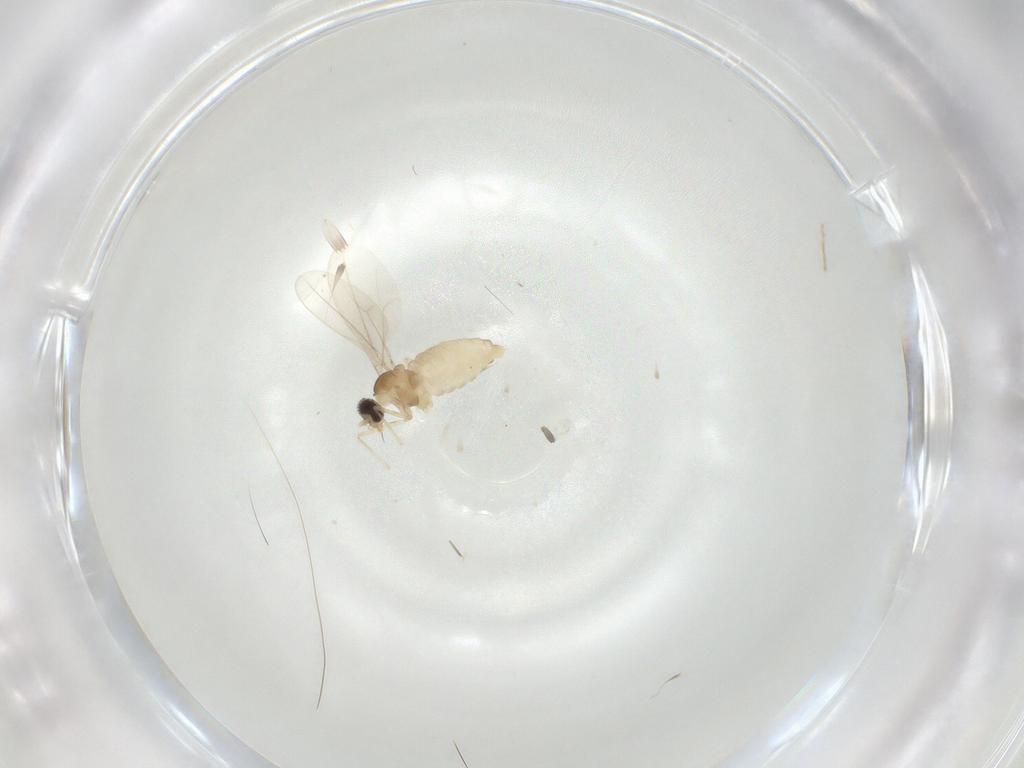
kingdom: Animalia
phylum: Arthropoda
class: Insecta
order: Diptera
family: Cecidomyiidae
